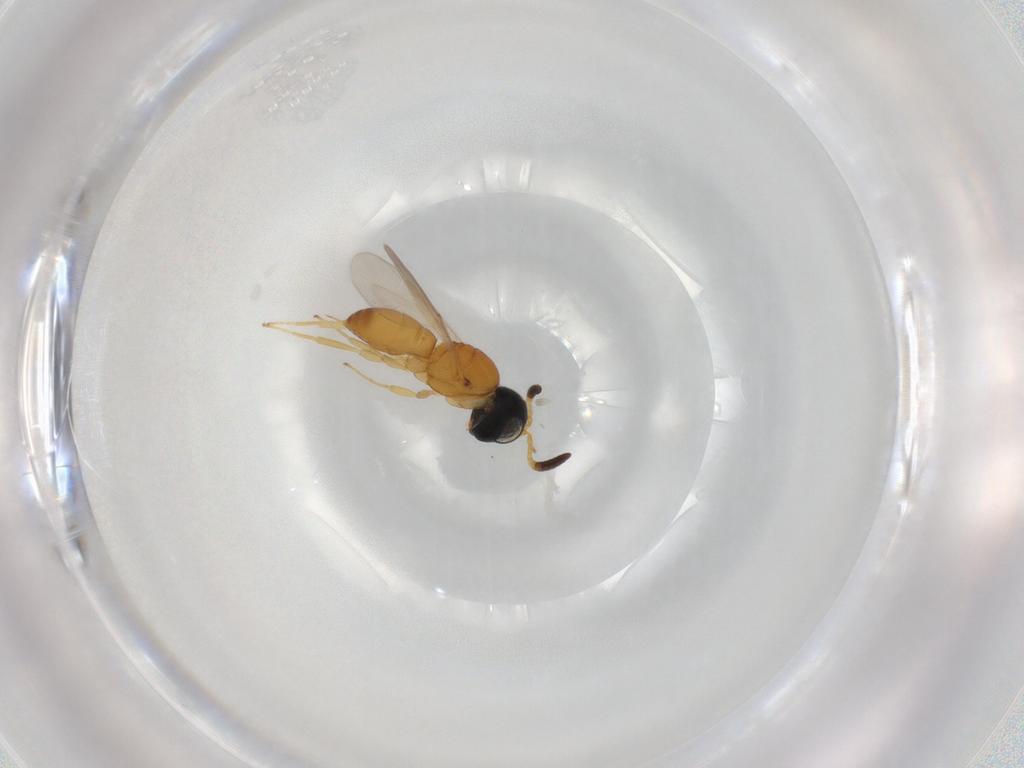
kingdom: Animalia
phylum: Arthropoda
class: Insecta
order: Hymenoptera
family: Scelionidae
